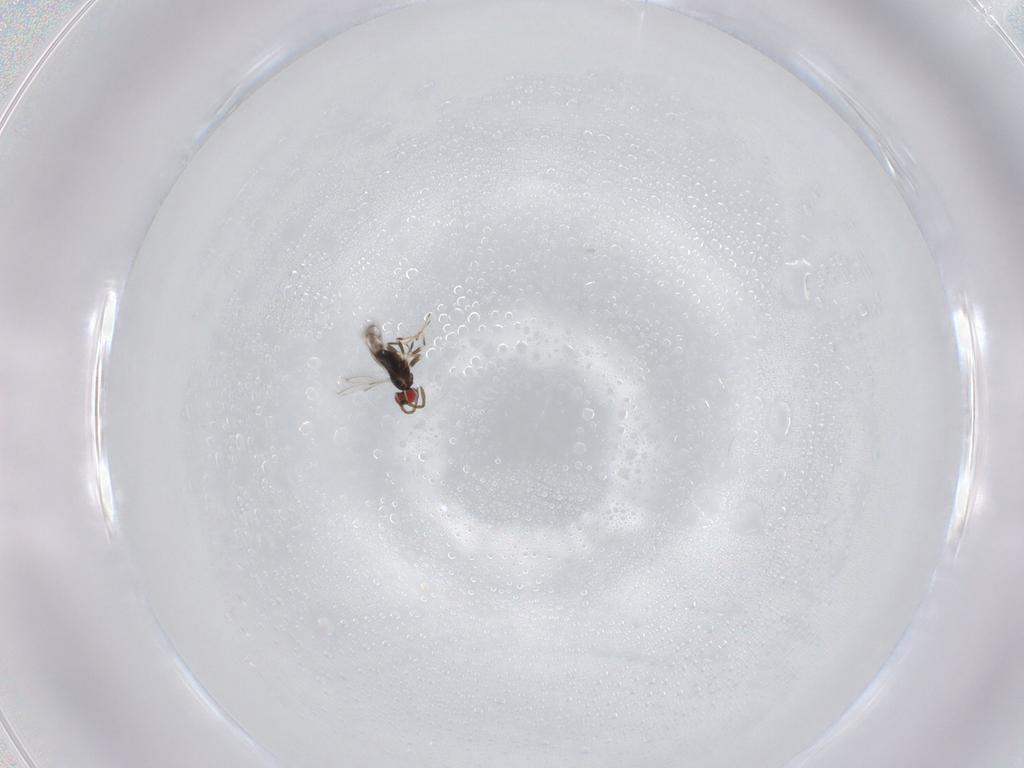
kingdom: Animalia
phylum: Arthropoda
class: Insecta
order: Hymenoptera
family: Azotidae
